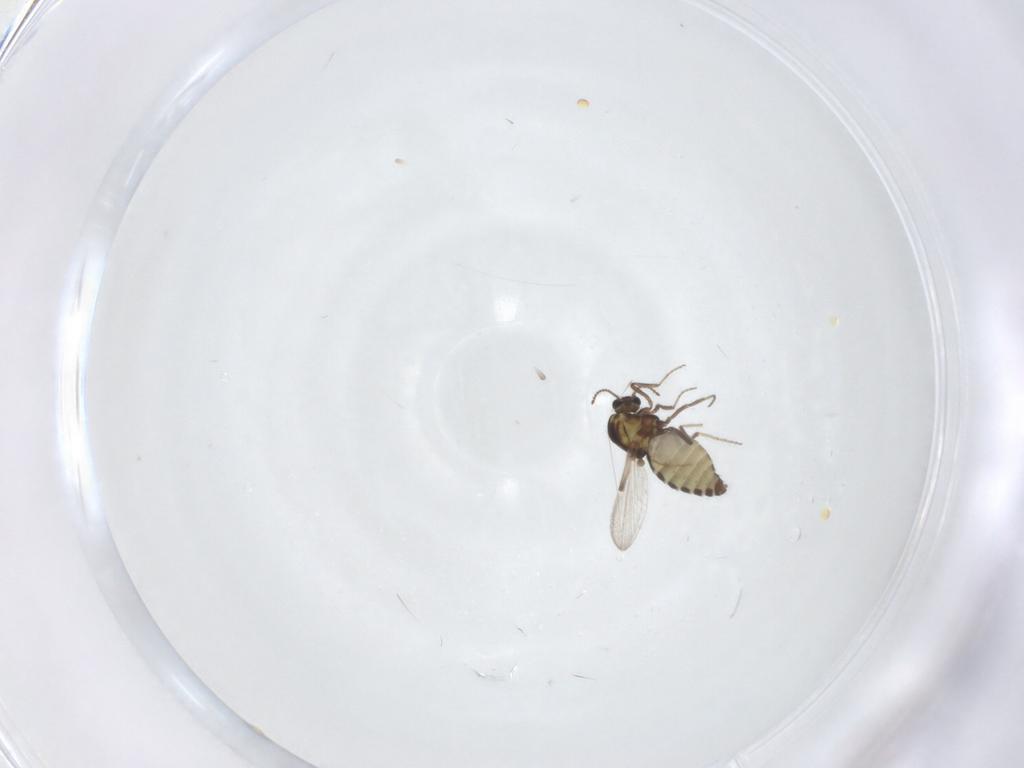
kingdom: Animalia
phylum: Arthropoda
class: Insecta
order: Diptera
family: Ceratopogonidae
